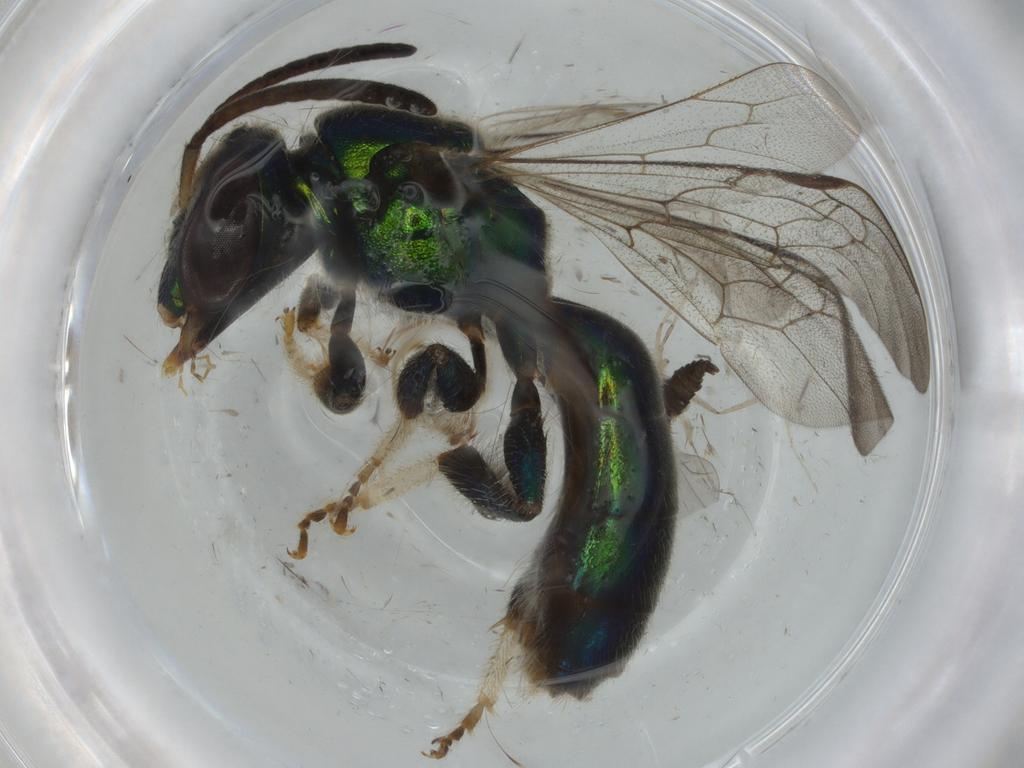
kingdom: Animalia
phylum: Arthropoda
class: Insecta
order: Diptera
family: Cecidomyiidae
